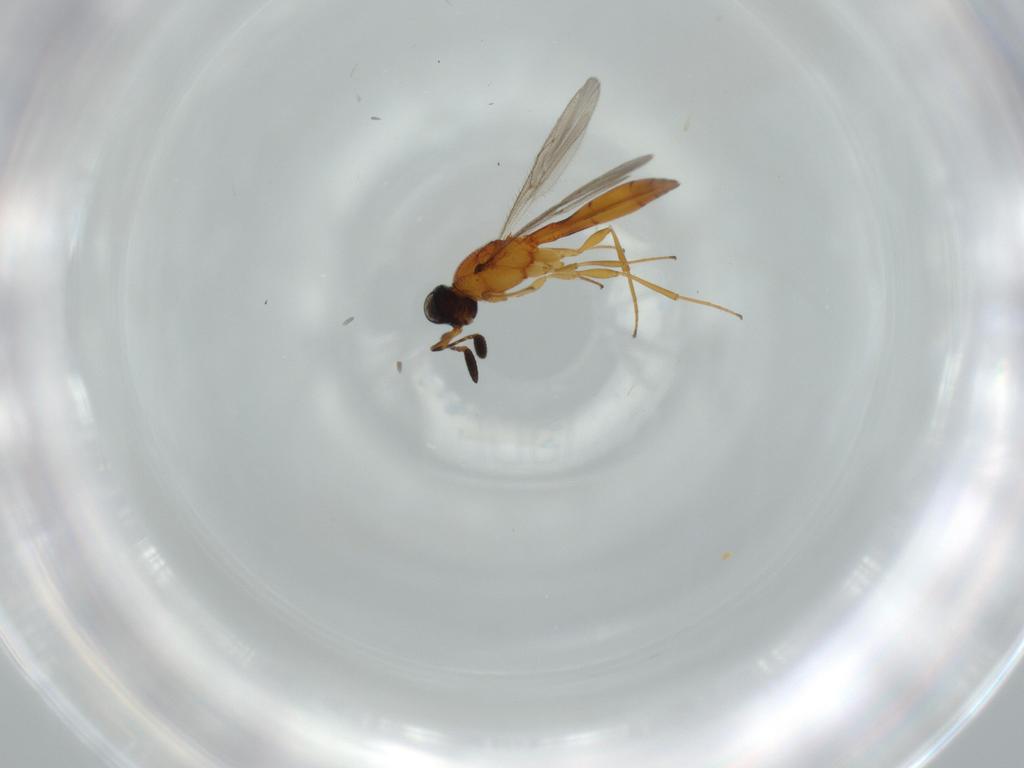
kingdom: Animalia
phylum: Arthropoda
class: Insecta
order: Hymenoptera
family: Scelionidae
